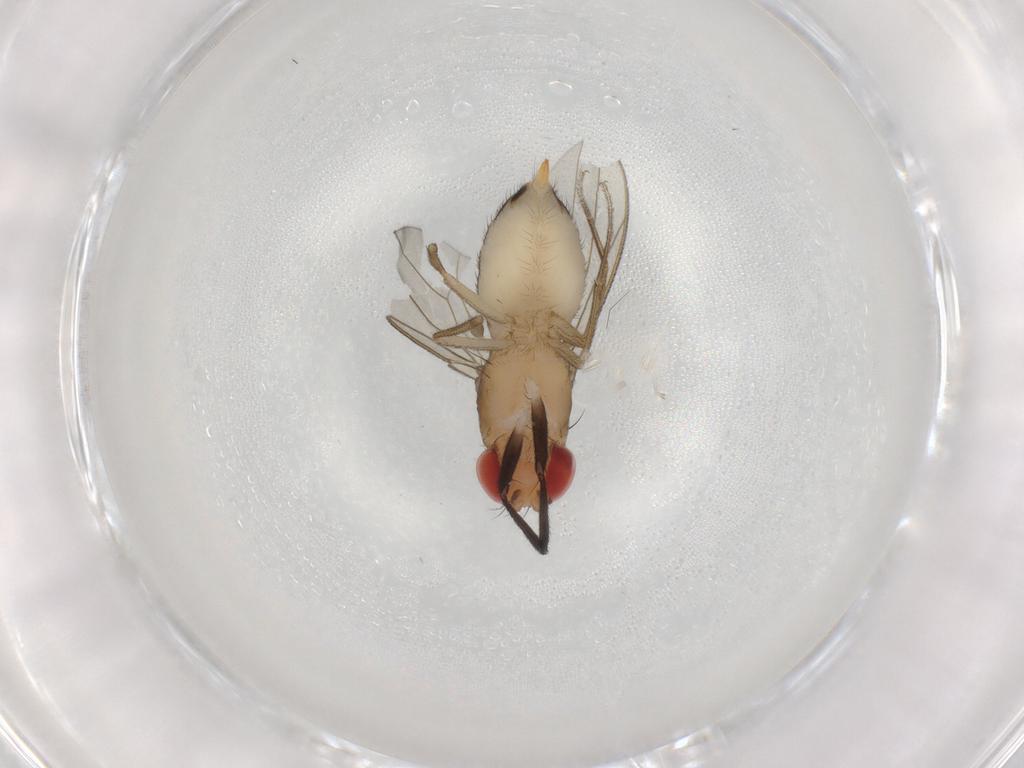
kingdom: Animalia
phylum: Arthropoda
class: Insecta
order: Diptera
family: Drosophilidae
